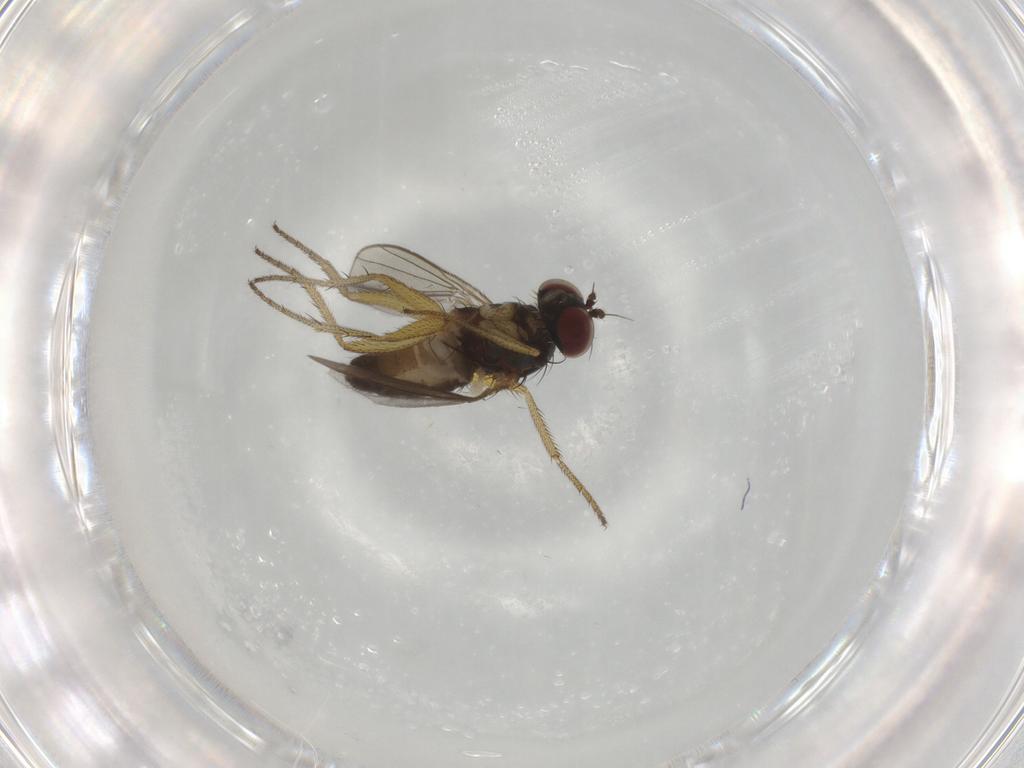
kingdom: Animalia
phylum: Arthropoda
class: Insecta
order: Diptera
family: Dolichopodidae
